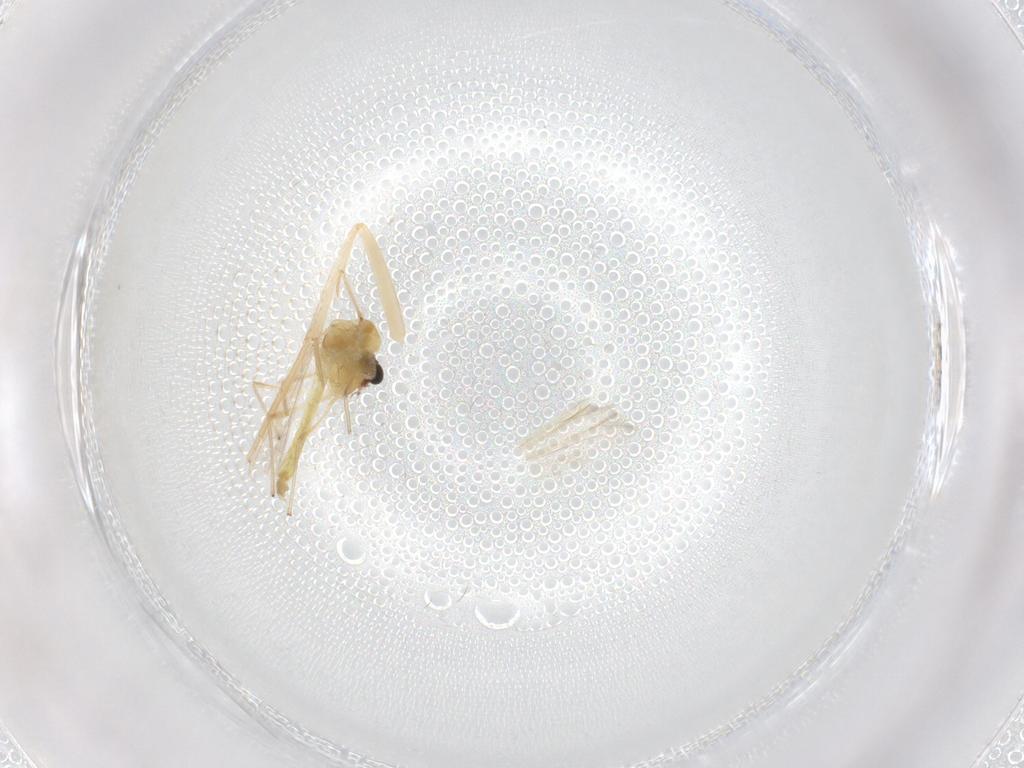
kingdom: Animalia
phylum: Arthropoda
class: Insecta
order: Diptera
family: Chironomidae
